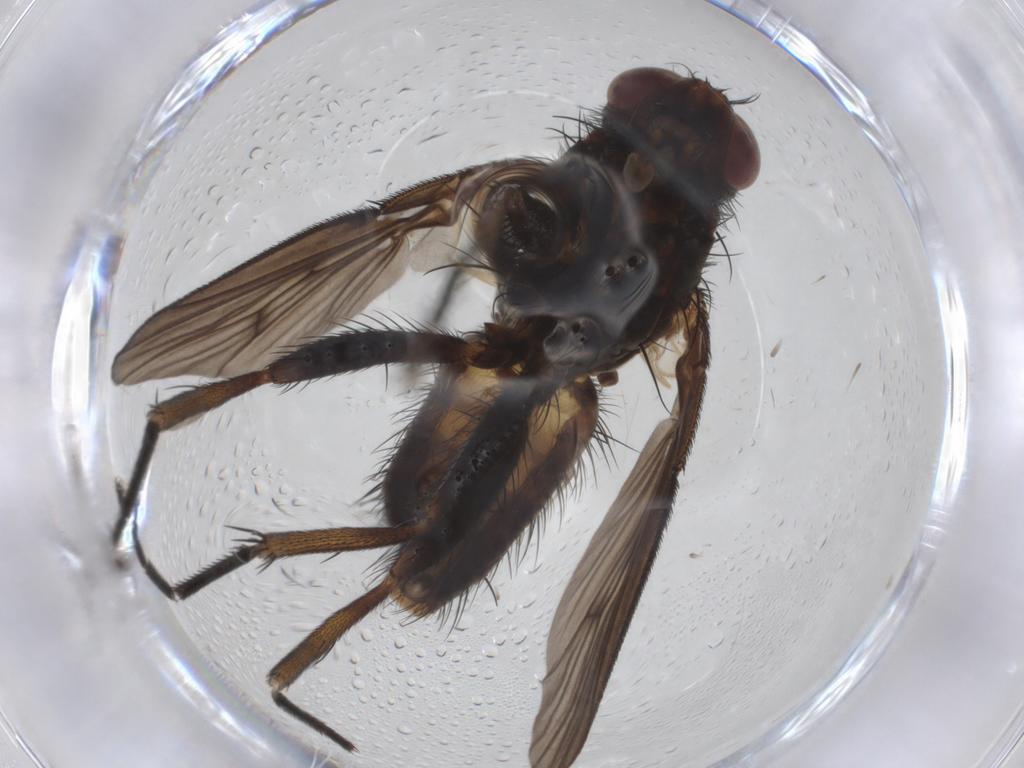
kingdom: Animalia
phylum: Arthropoda
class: Insecta
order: Diptera
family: Muscidae
